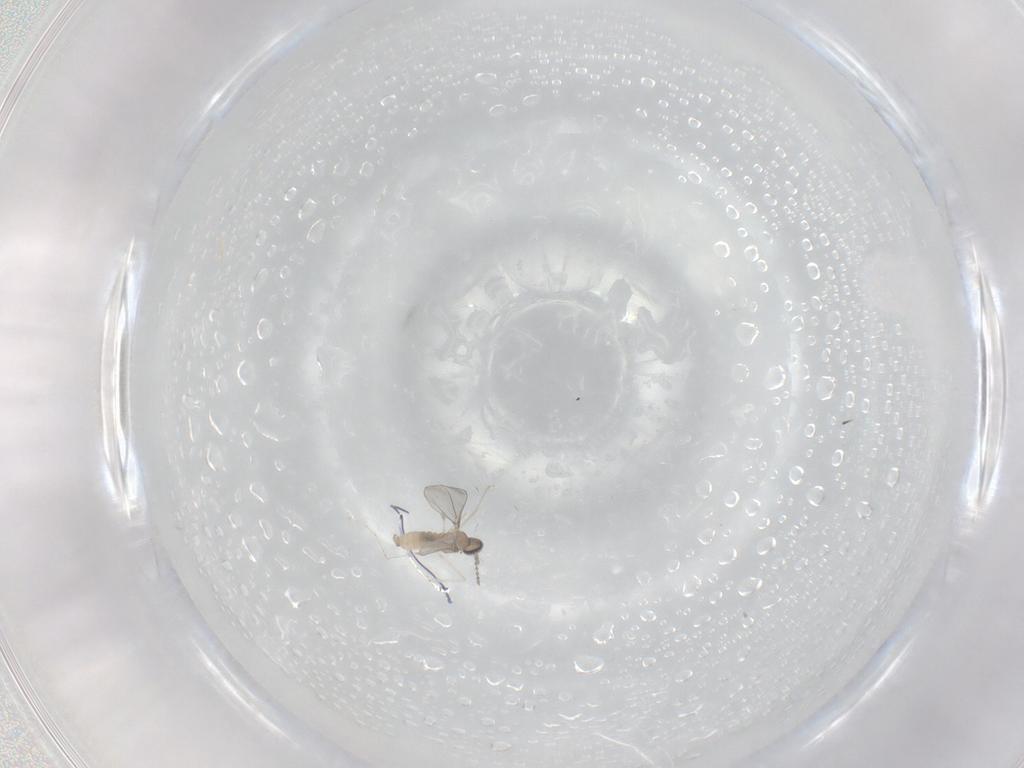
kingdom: Animalia
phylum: Arthropoda
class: Insecta
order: Diptera
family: Cecidomyiidae
